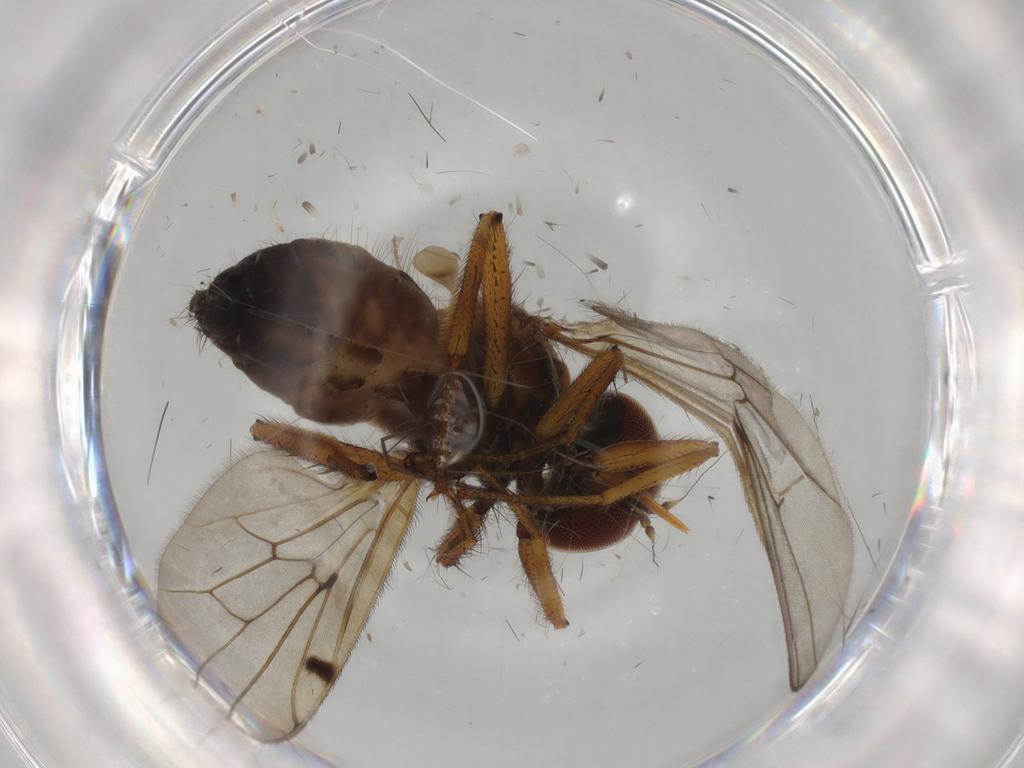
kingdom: Animalia
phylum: Arthropoda
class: Insecta
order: Diptera
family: Hybotidae
